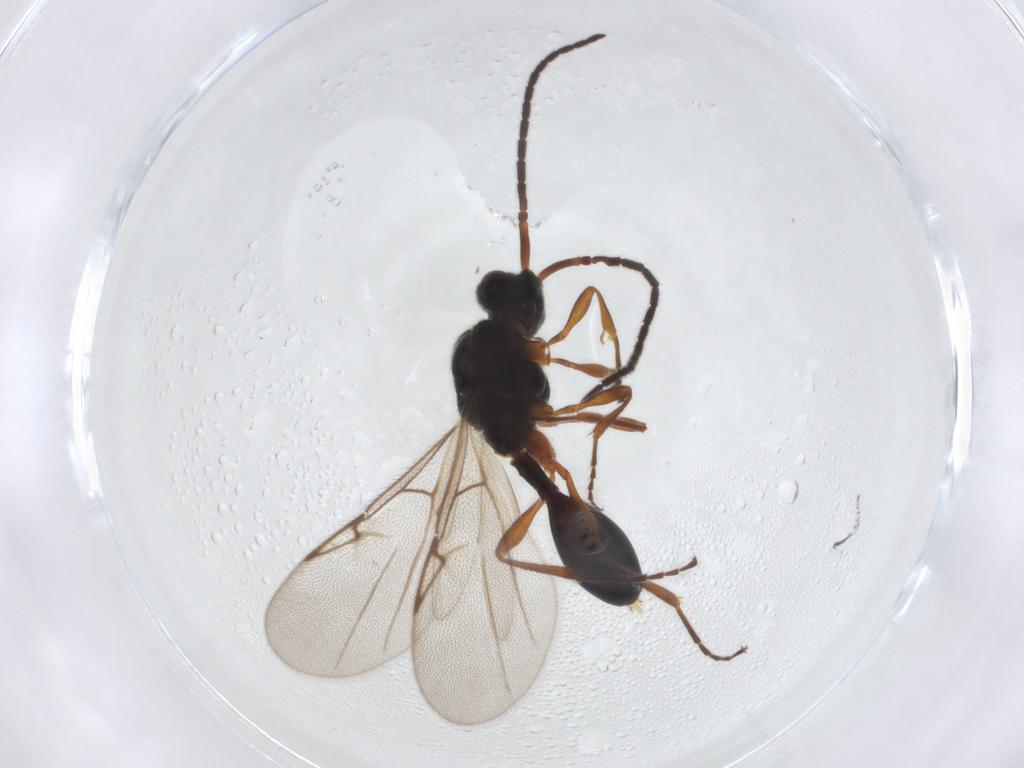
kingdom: Animalia
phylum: Arthropoda
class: Insecta
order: Hymenoptera
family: Diapriidae
